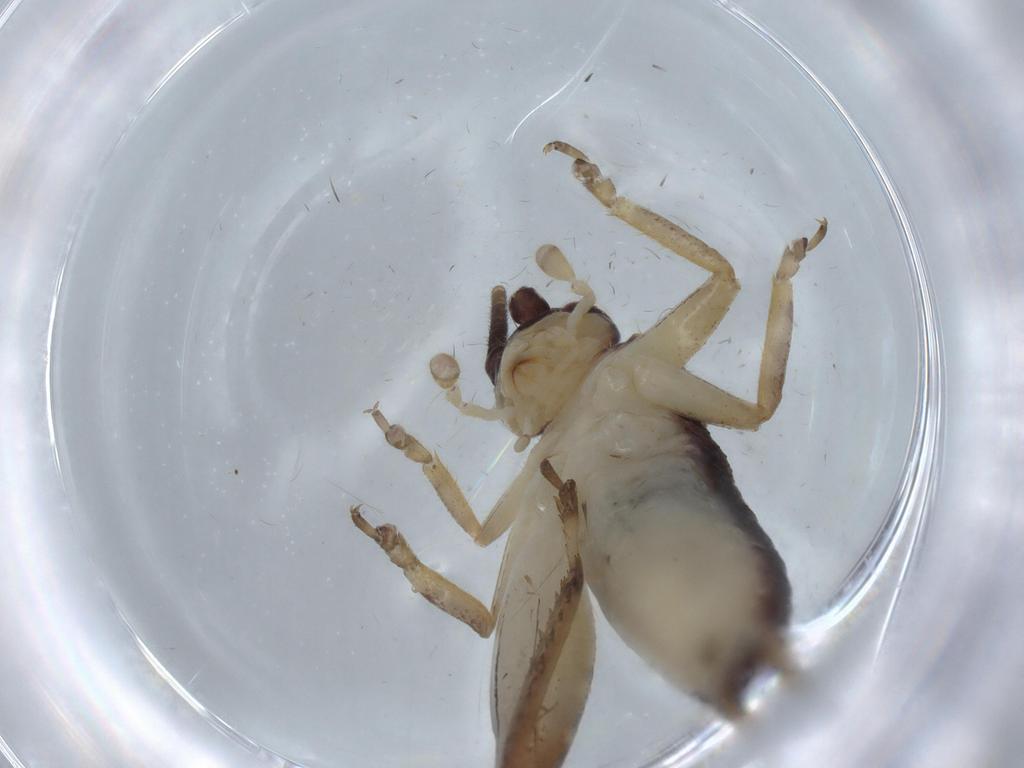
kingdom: Animalia
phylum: Arthropoda
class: Insecta
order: Orthoptera
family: Gryllidae
